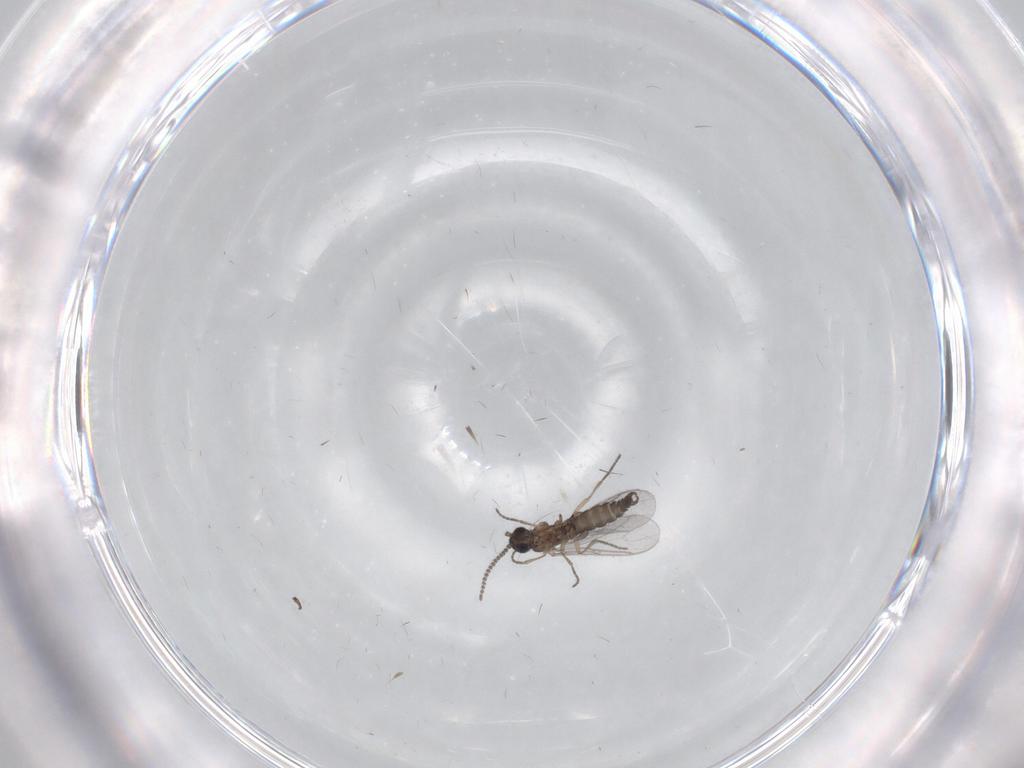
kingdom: Animalia
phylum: Arthropoda
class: Insecta
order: Diptera
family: Sciaridae
